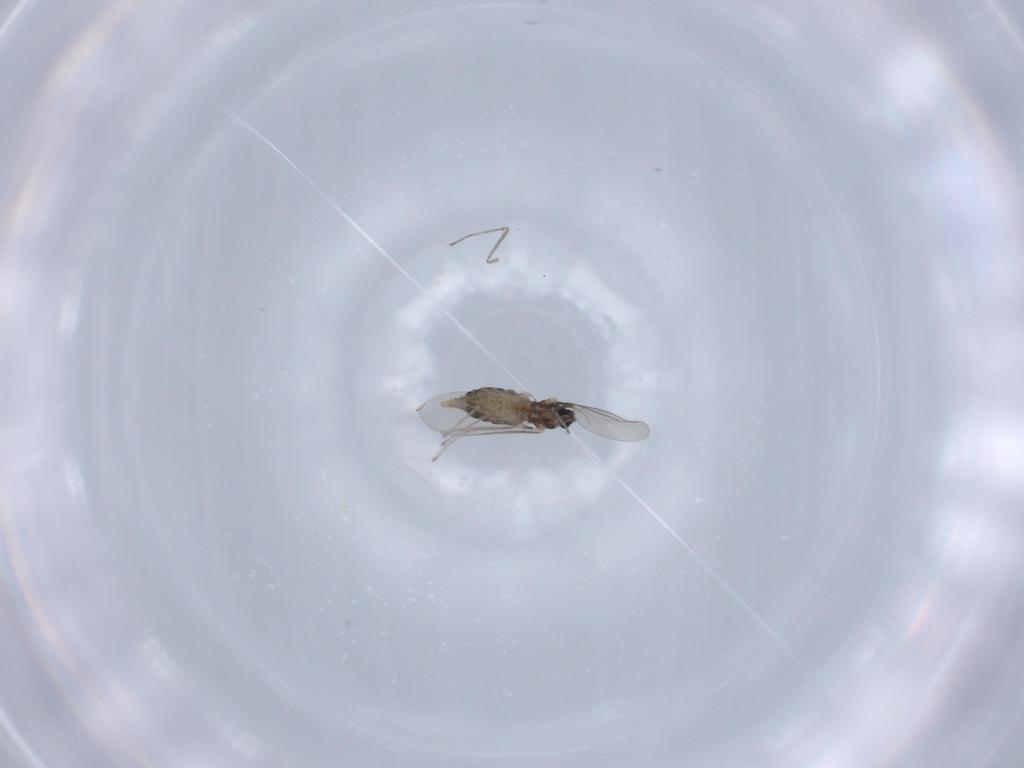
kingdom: Animalia
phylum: Arthropoda
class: Insecta
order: Diptera
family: Cecidomyiidae
